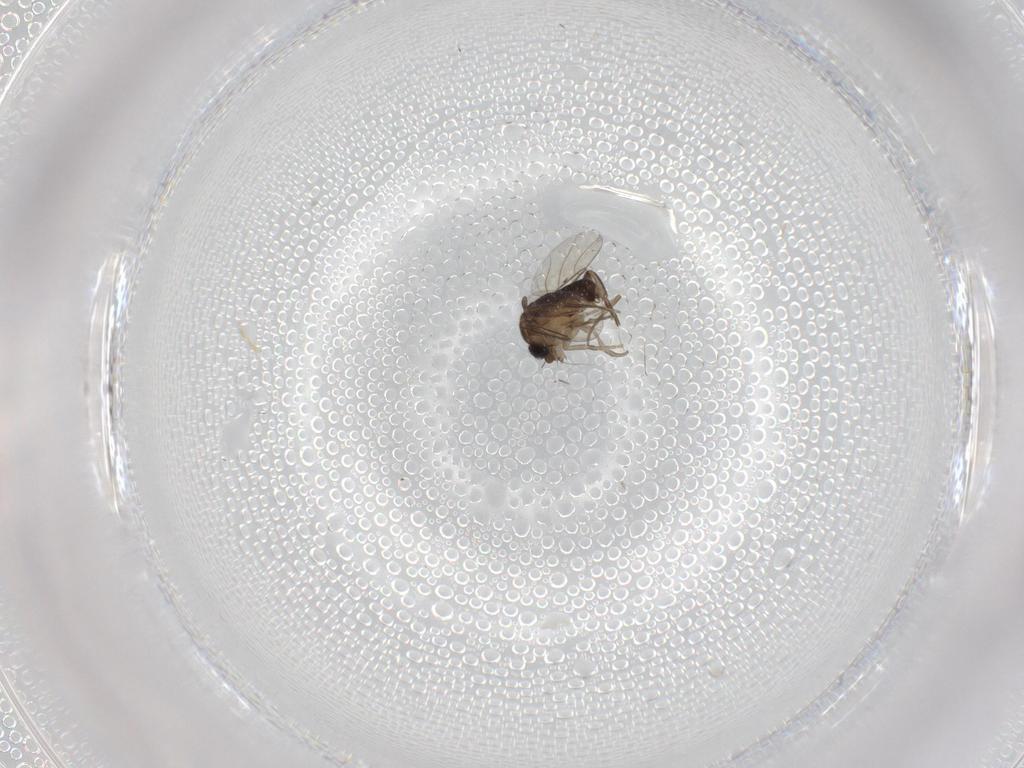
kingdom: Animalia
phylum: Arthropoda
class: Insecta
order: Diptera
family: Phoridae
